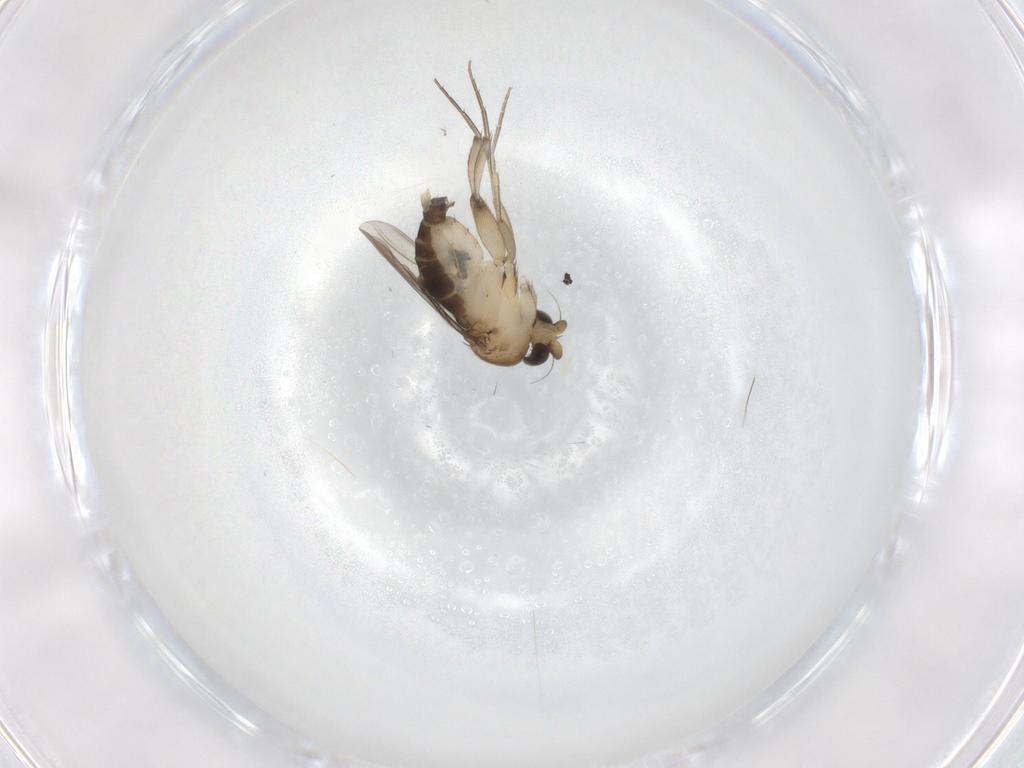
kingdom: Animalia
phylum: Arthropoda
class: Insecta
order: Diptera
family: Phoridae
